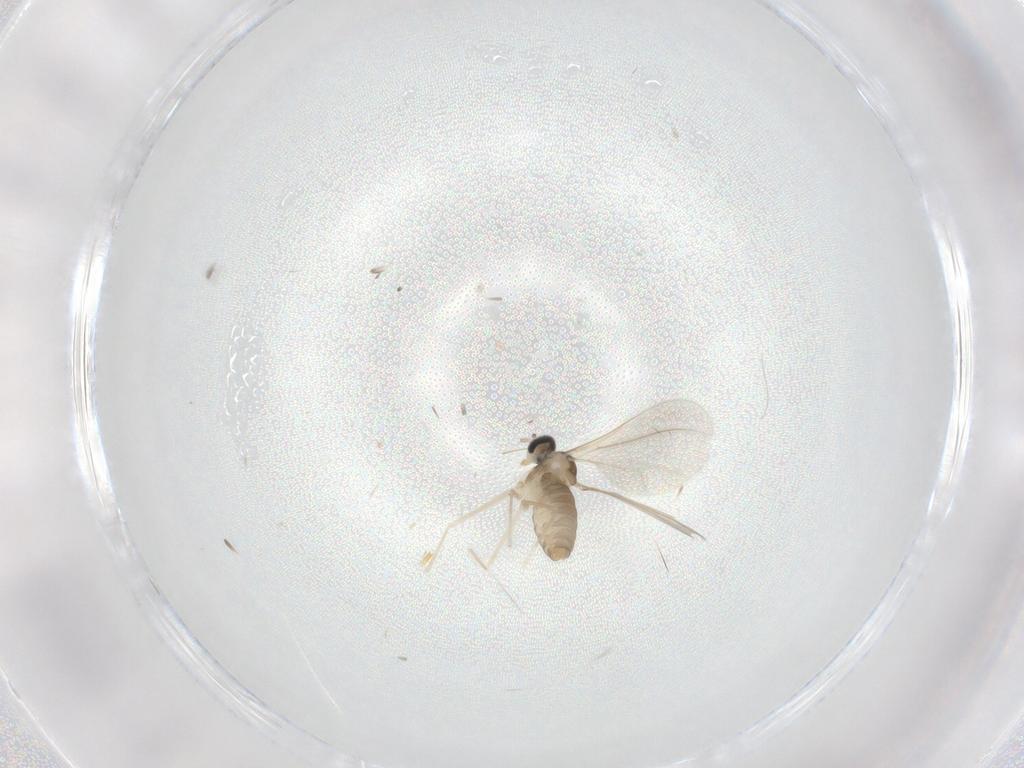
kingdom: Animalia
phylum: Arthropoda
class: Insecta
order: Diptera
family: Cecidomyiidae
